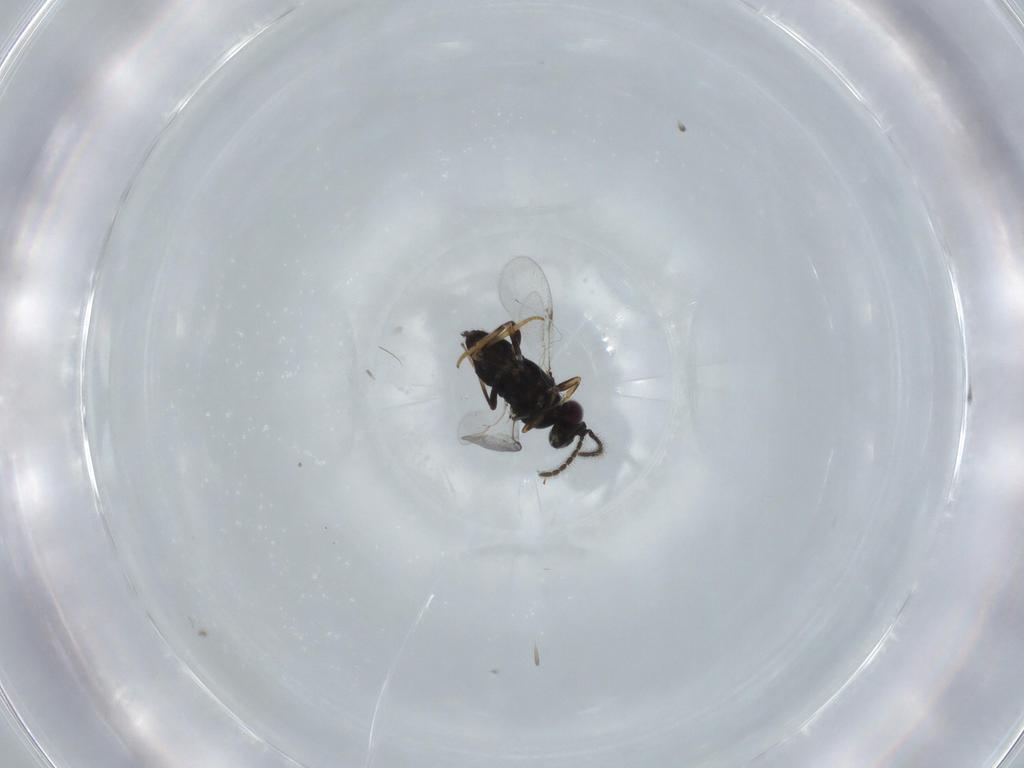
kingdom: Animalia
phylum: Arthropoda
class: Insecta
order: Hymenoptera
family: Encyrtidae
